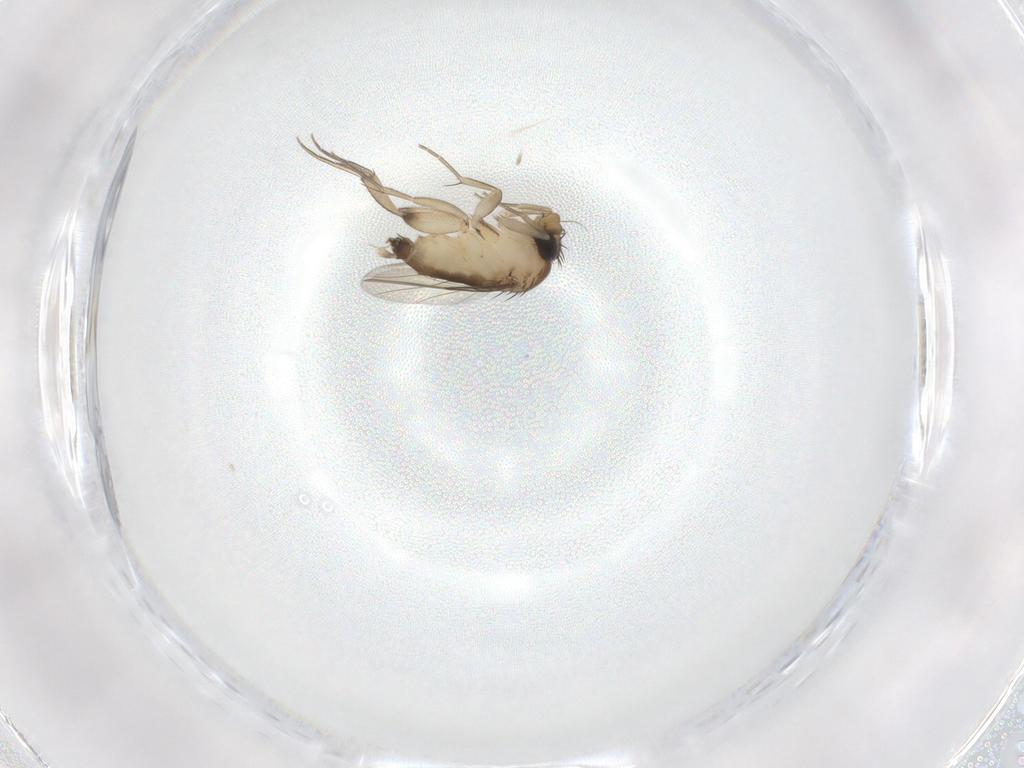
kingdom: Animalia
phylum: Arthropoda
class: Insecta
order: Diptera
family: Phoridae
